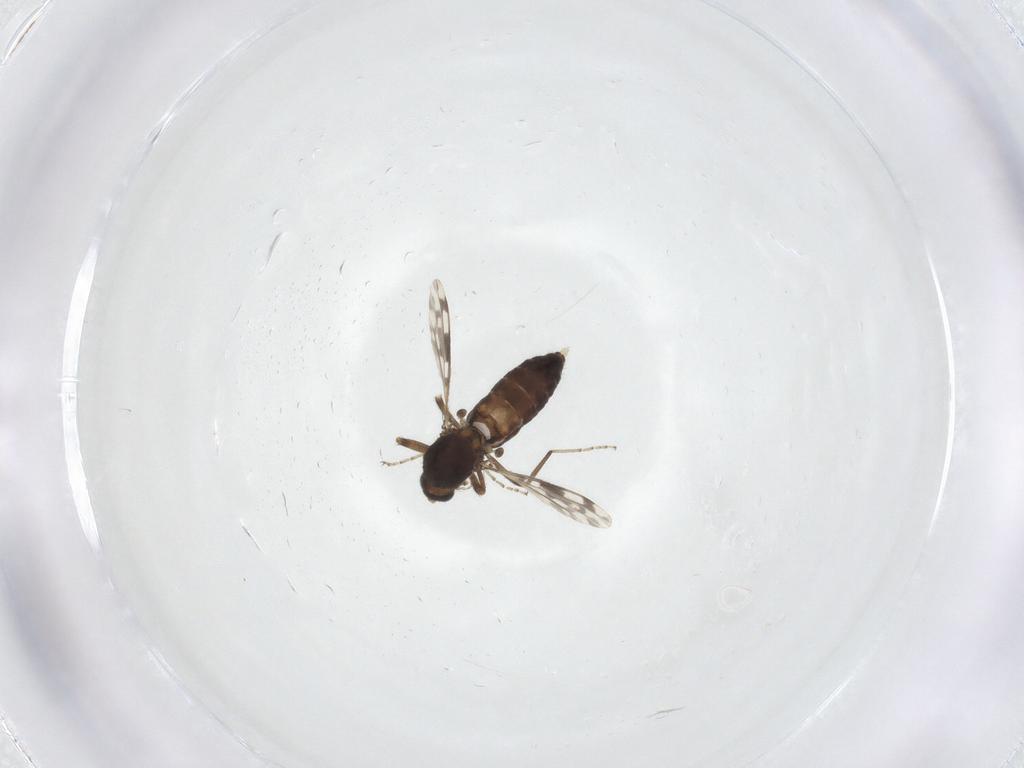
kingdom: Animalia
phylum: Arthropoda
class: Insecta
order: Diptera
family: Ceratopogonidae
